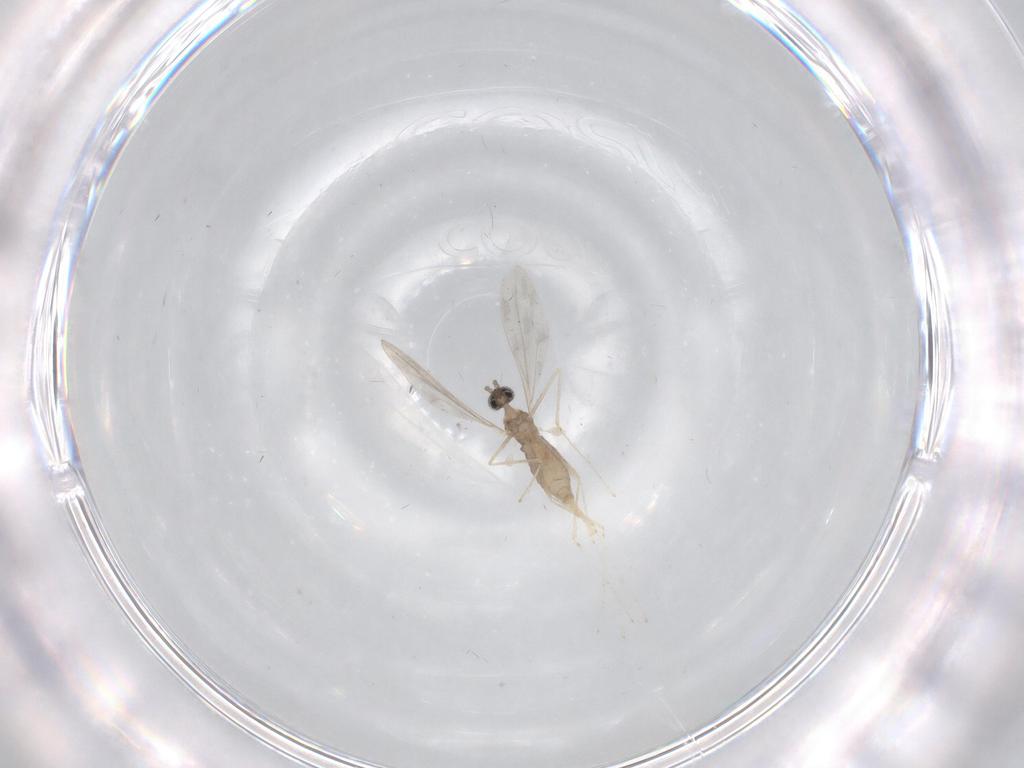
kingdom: Animalia
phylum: Arthropoda
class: Insecta
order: Diptera
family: Cecidomyiidae
